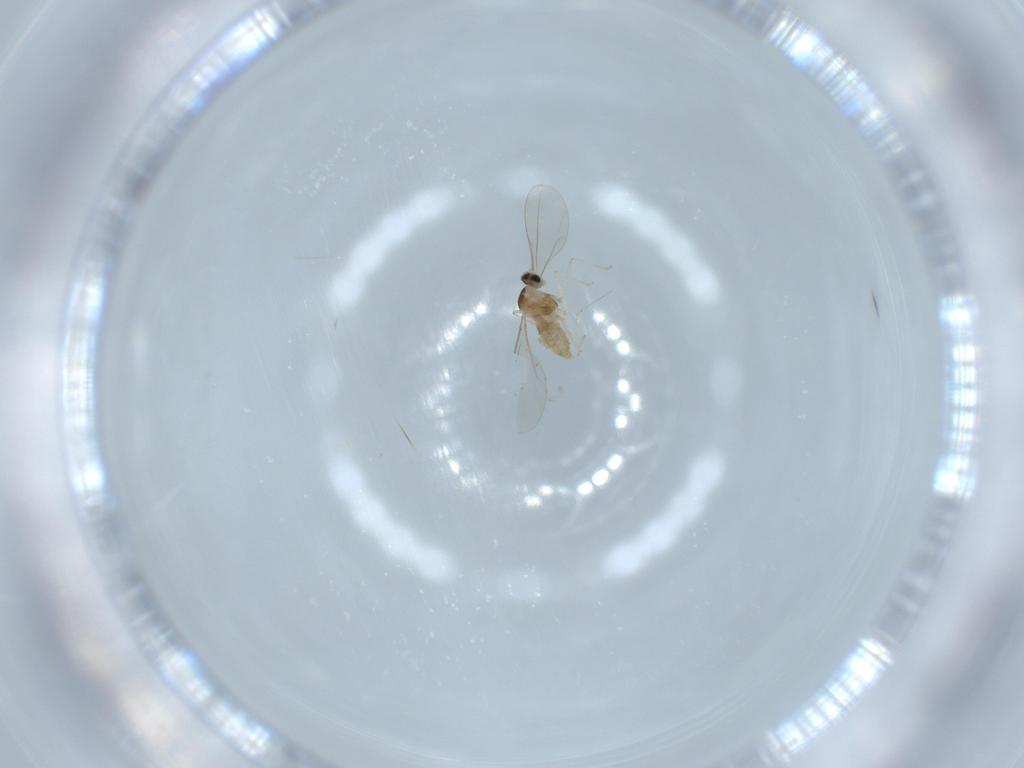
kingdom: Animalia
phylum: Arthropoda
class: Insecta
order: Diptera
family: Cecidomyiidae
